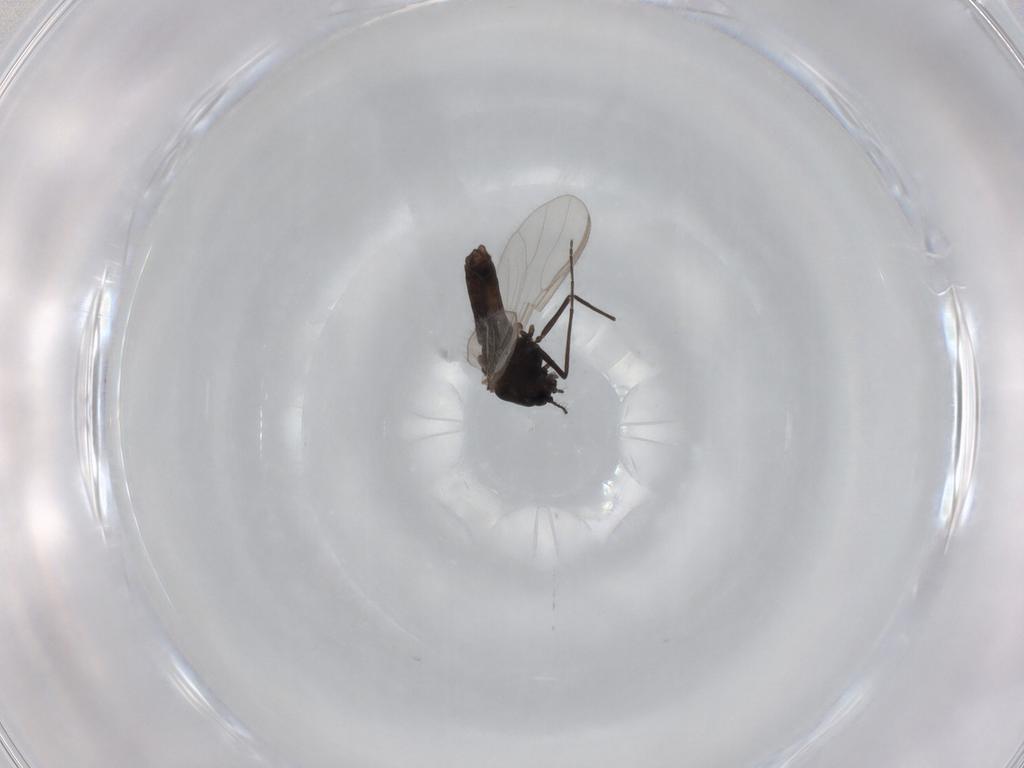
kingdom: Animalia
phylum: Arthropoda
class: Insecta
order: Diptera
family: Chironomidae
